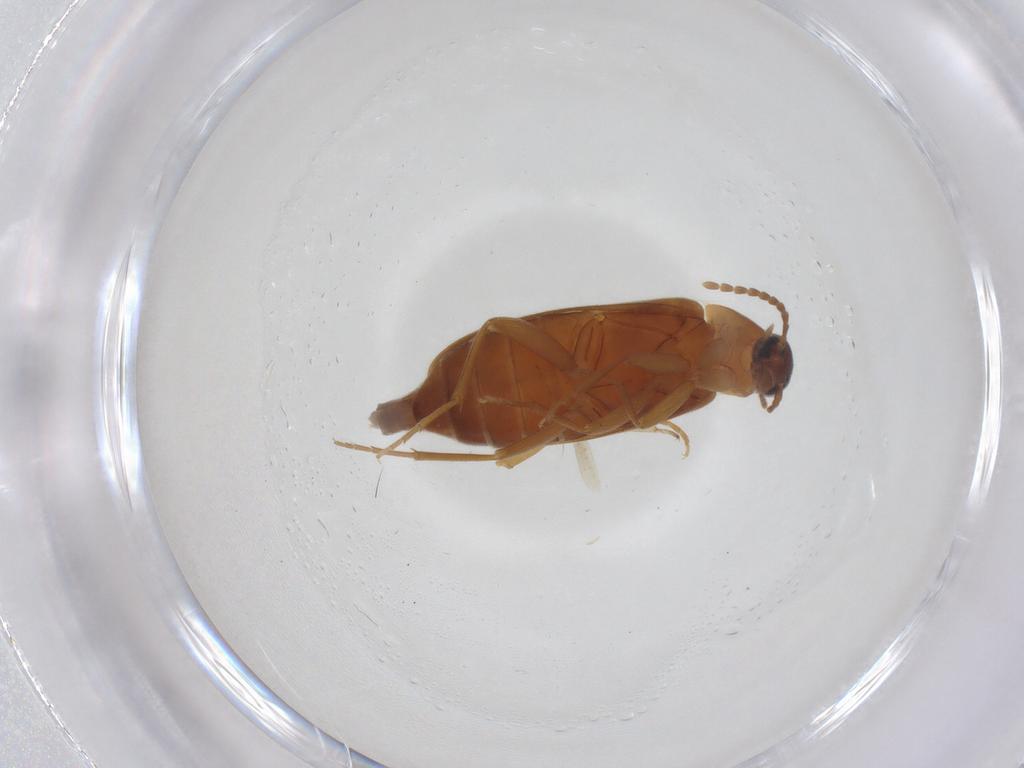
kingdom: Animalia
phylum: Arthropoda
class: Insecta
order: Coleoptera
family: Scraptiidae
